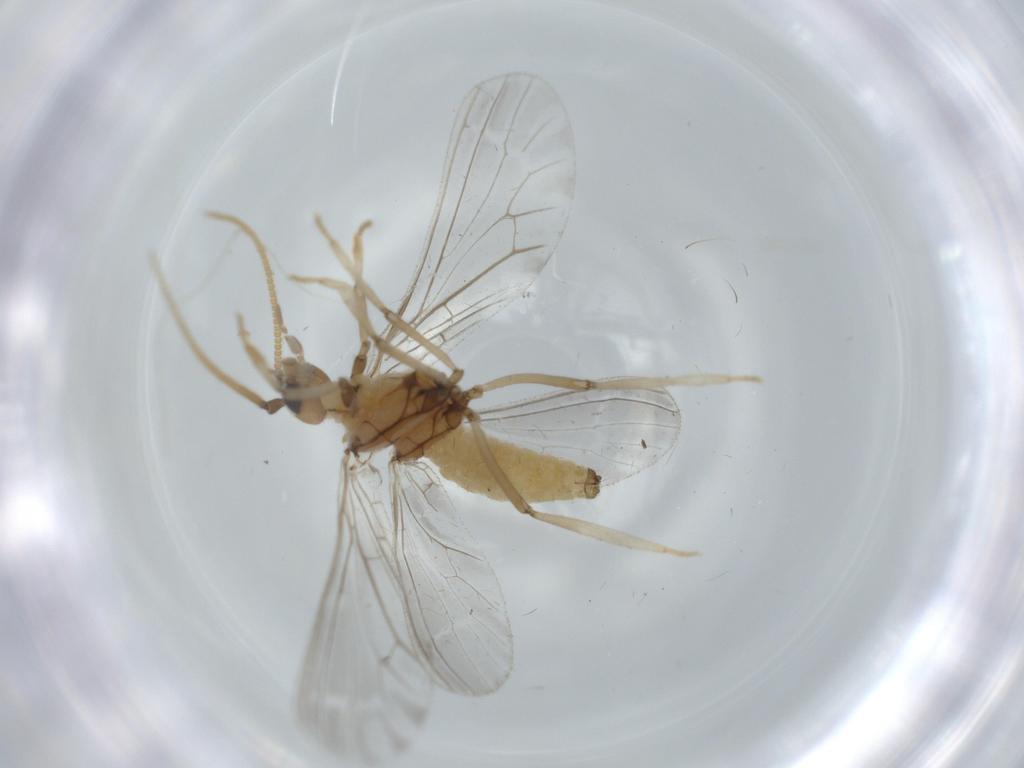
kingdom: Animalia
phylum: Arthropoda
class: Insecta
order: Neuroptera
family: Coniopterygidae
